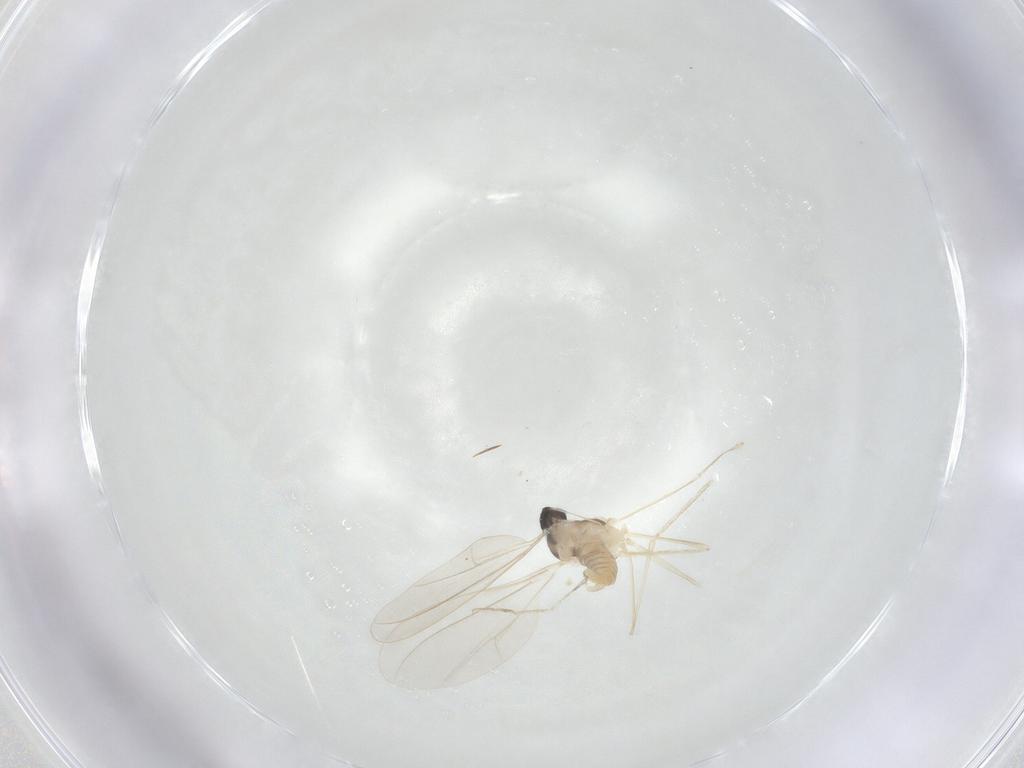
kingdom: Animalia
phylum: Arthropoda
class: Insecta
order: Diptera
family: Cecidomyiidae
